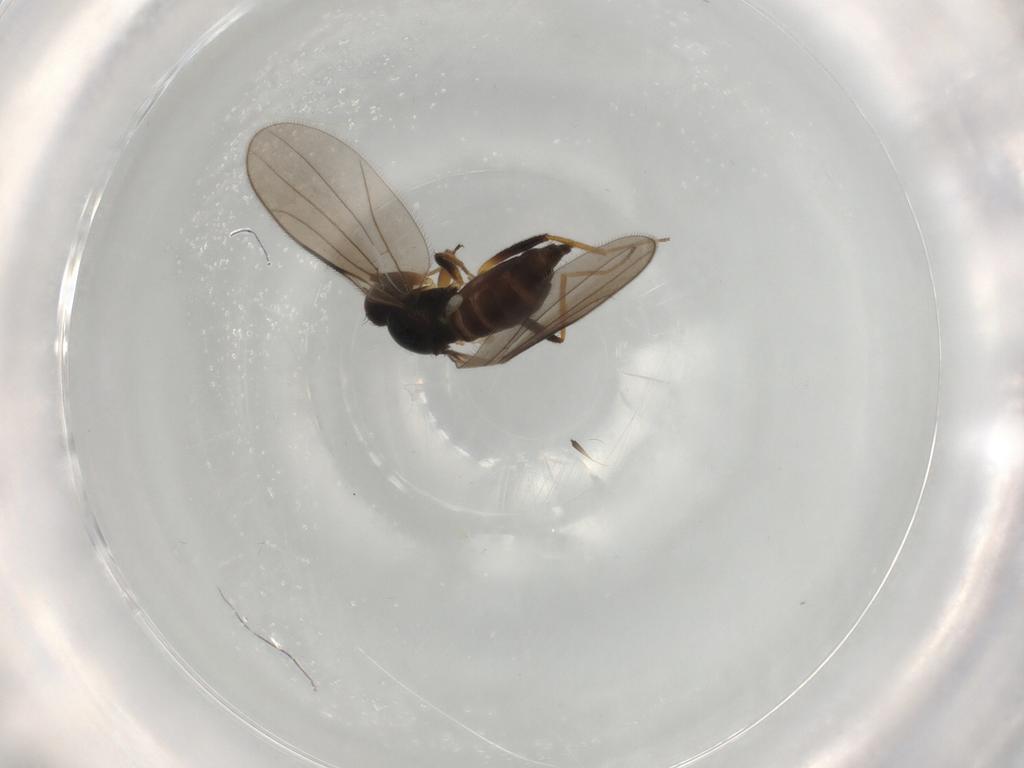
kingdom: Animalia
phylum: Arthropoda
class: Insecta
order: Diptera
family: Hybotidae
